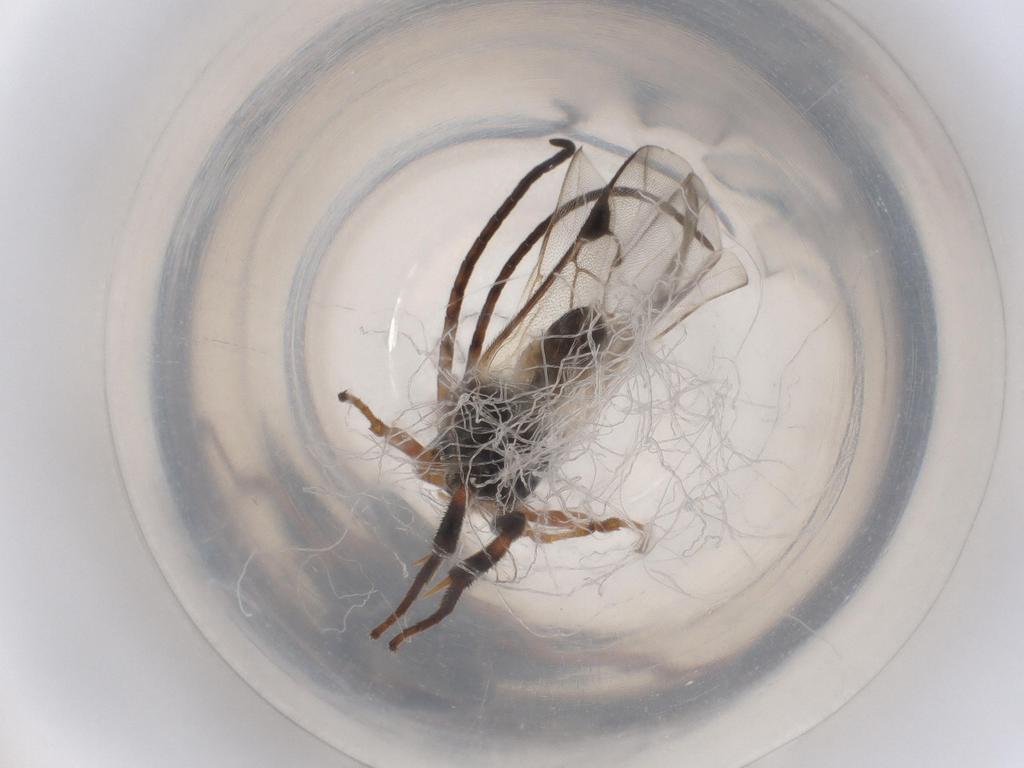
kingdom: Animalia
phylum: Arthropoda
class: Insecta
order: Hymenoptera
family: Braconidae
